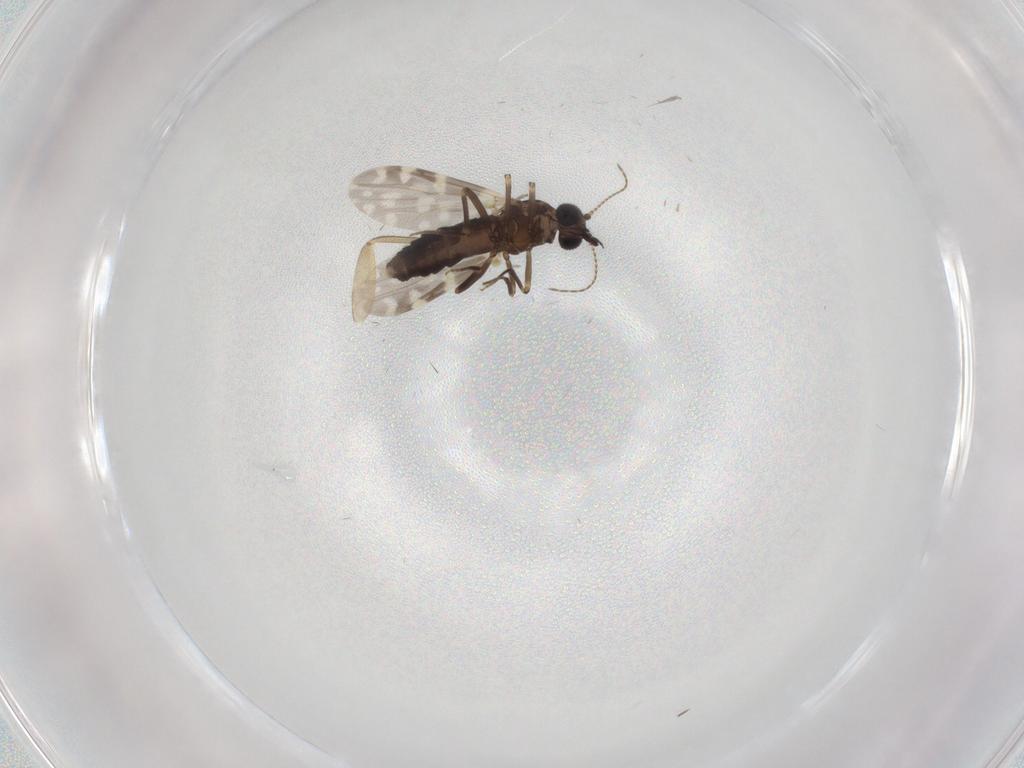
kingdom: Animalia
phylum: Arthropoda
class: Insecta
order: Diptera
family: Ceratopogonidae
